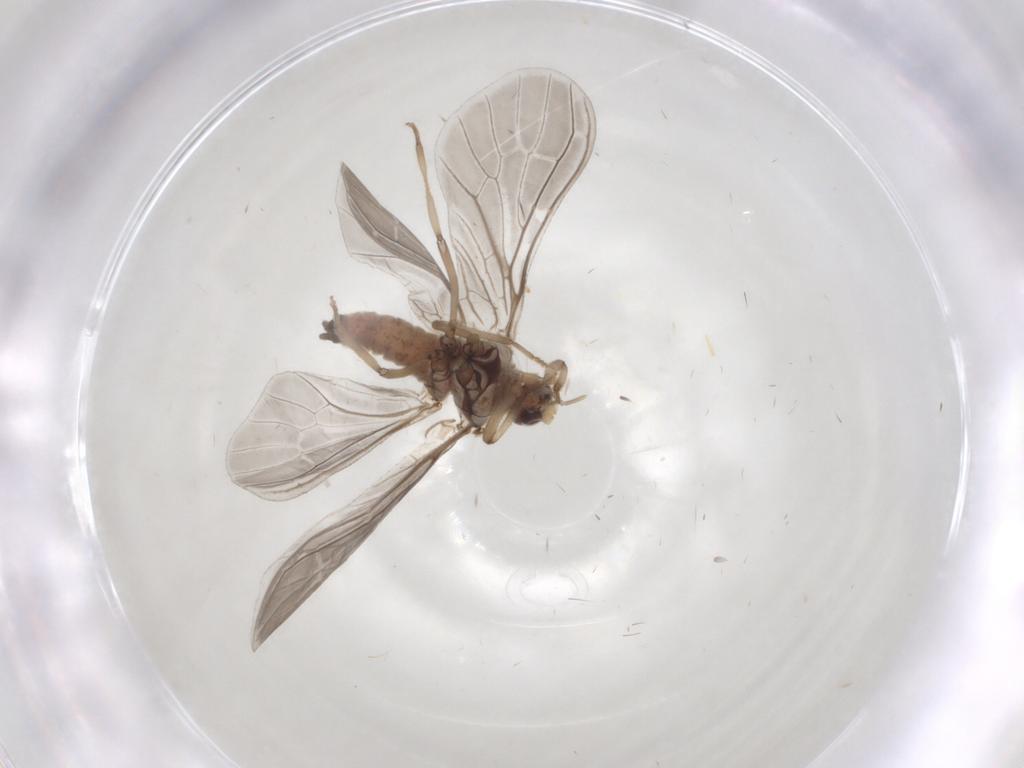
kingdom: Animalia
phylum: Arthropoda
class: Insecta
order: Neuroptera
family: Coniopterygidae
